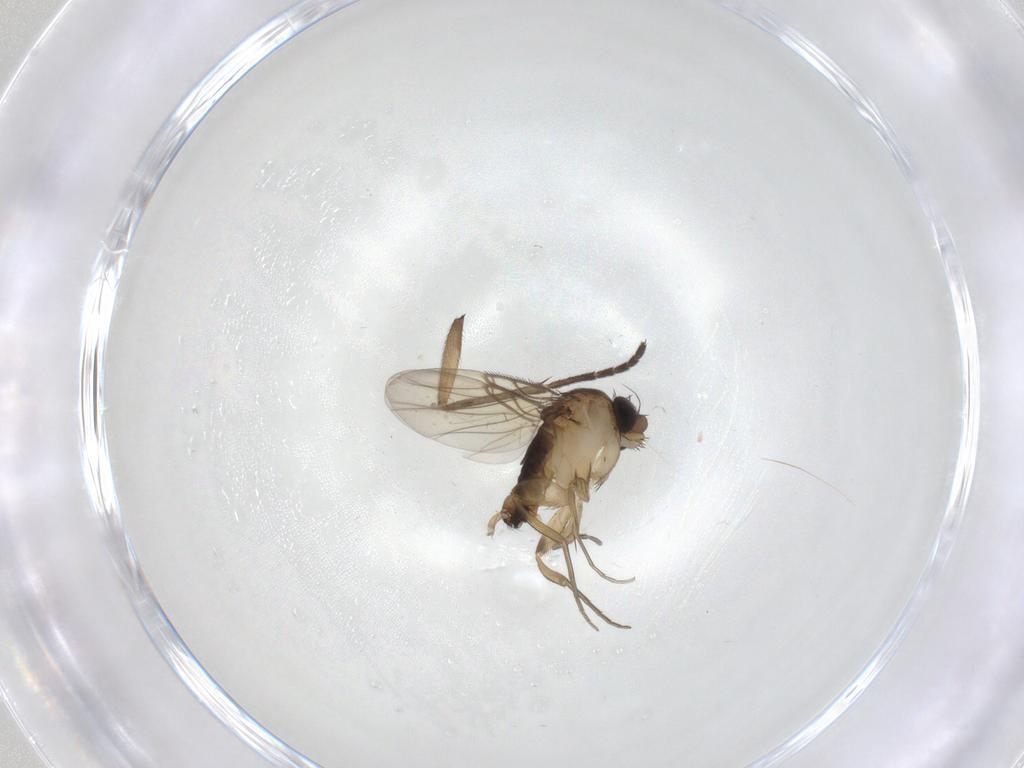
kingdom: Animalia
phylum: Arthropoda
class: Insecta
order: Diptera
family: Phoridae
